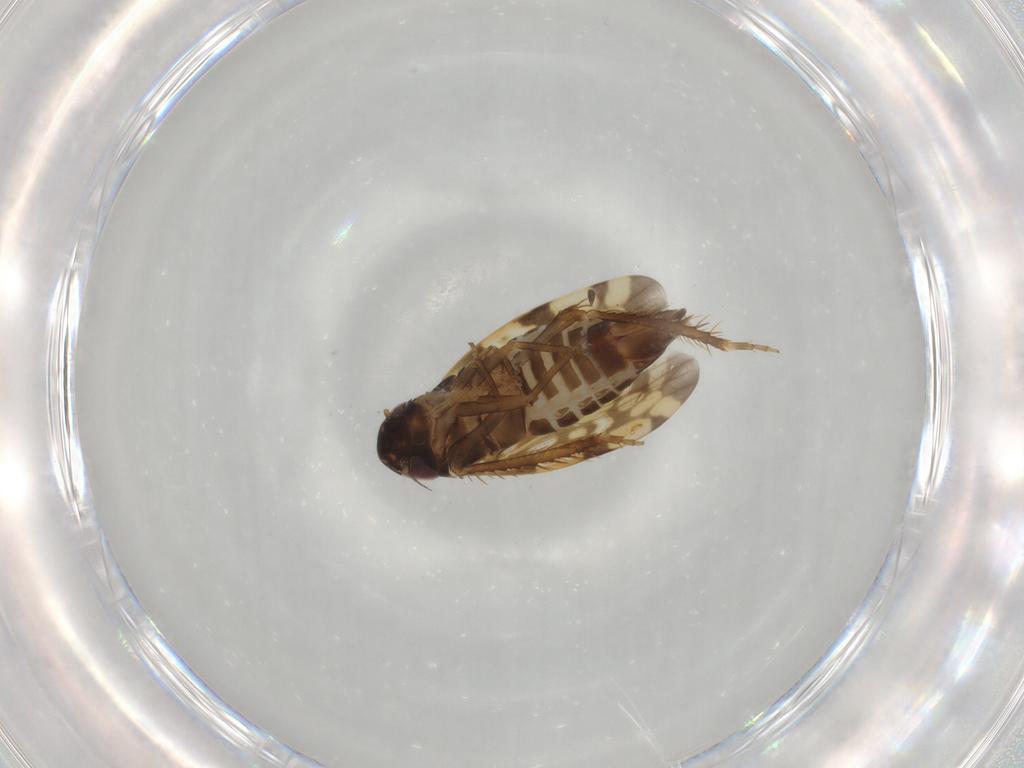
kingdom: Animalia
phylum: Arthropoda
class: Insecta
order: Hemiptera
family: Cicadellidae
